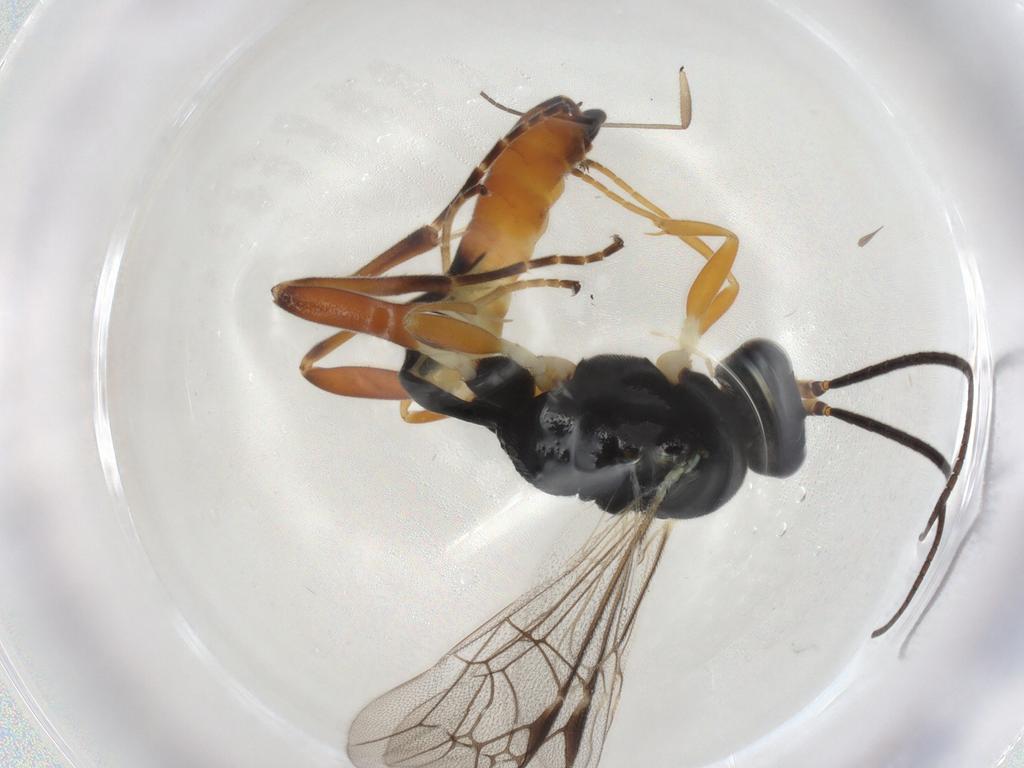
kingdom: Animalia
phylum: Arthropoda
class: Insecta
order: Hymenoptera
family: Ichneumonidae
